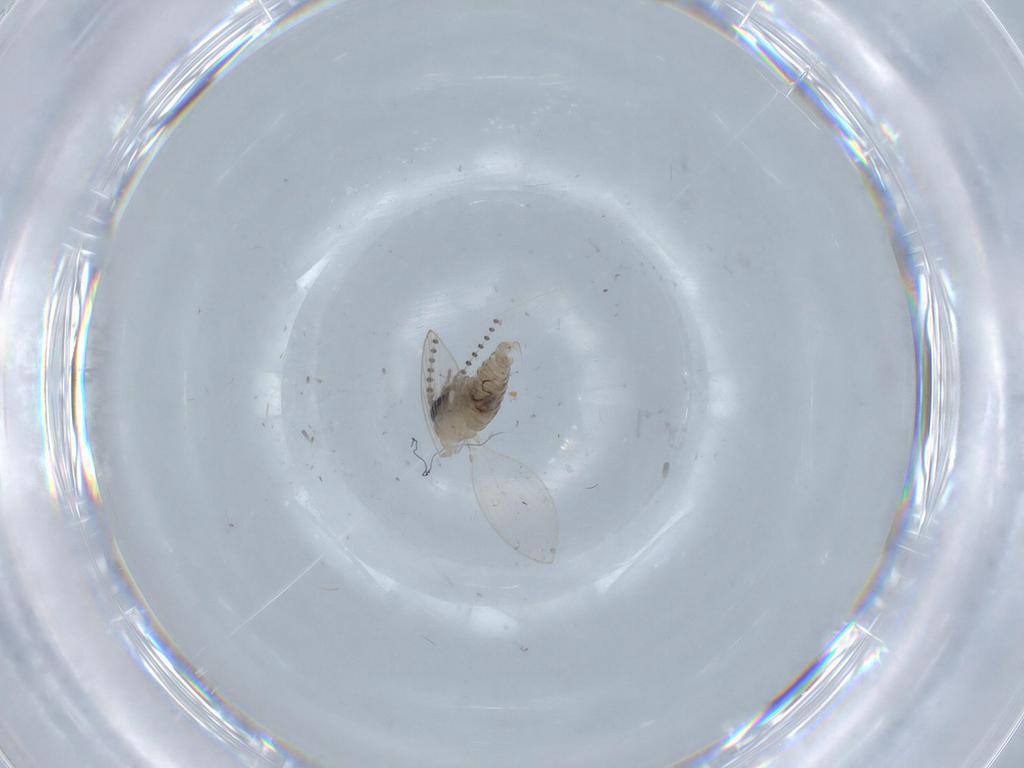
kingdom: Animalia
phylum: Arthropoda
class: Insecta
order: Diptera
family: Psychodidae
